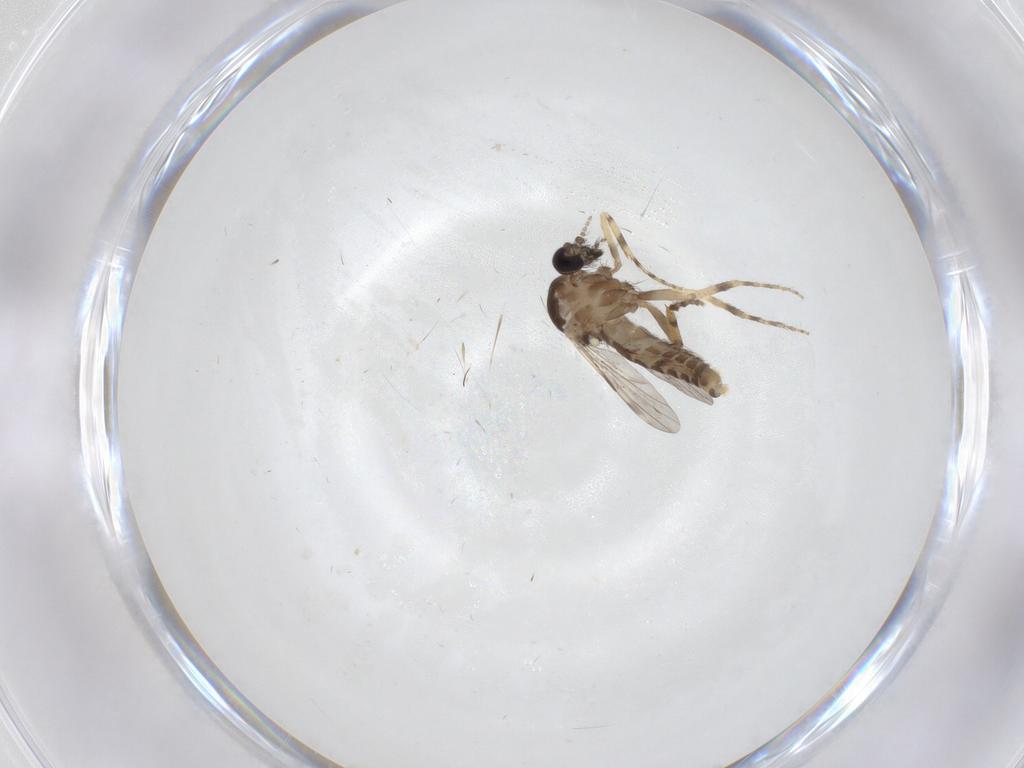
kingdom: Animalia
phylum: Arthropoda
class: Insecta
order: Diptera
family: Ceratopogonidae
